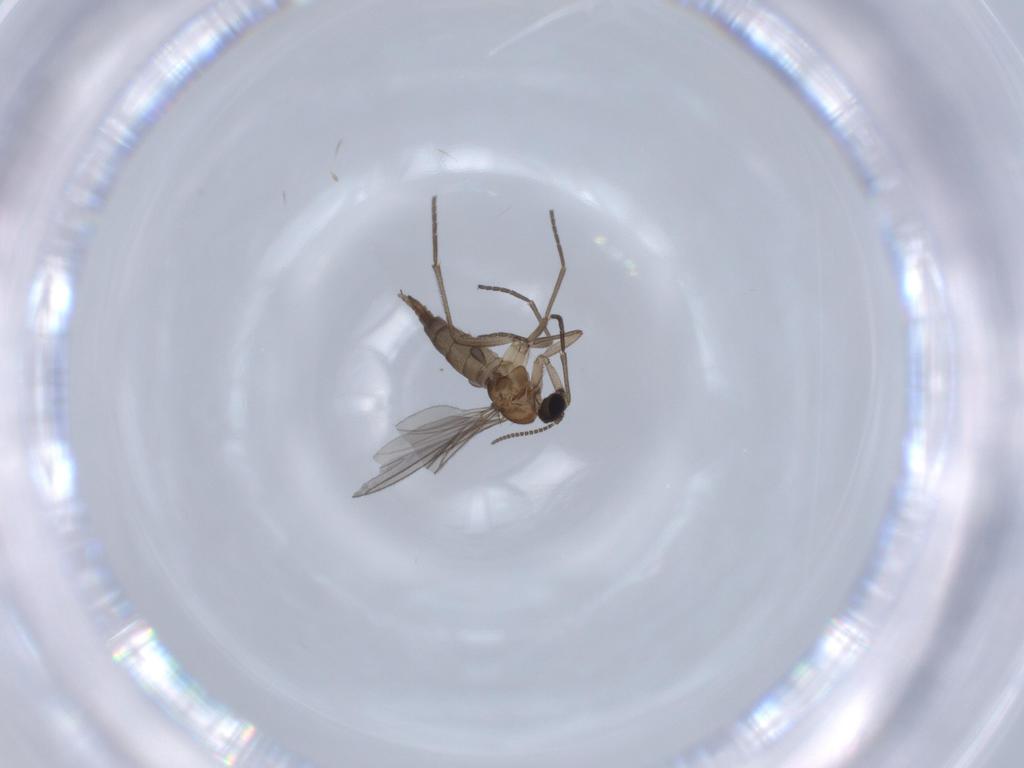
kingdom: Animalia
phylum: Arthropoda
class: Insecta
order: Diptera
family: Sciaridae
